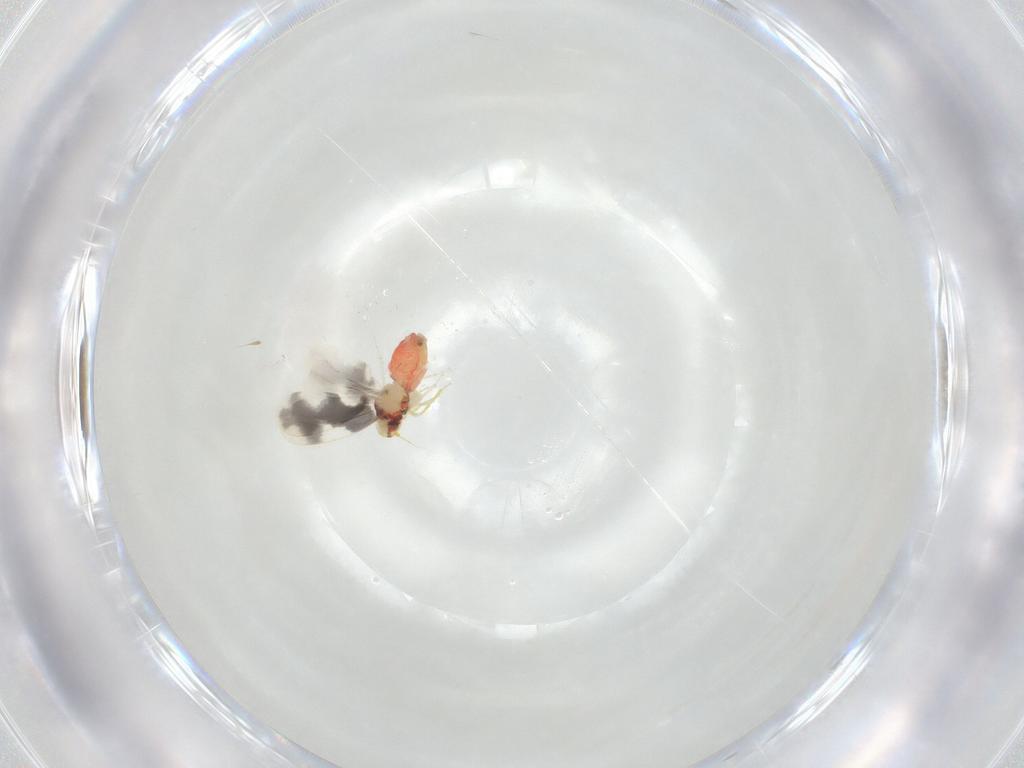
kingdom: Animalia
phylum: Arthropoda
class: Insecta
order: Hemiptera
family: Aleyrodidae
